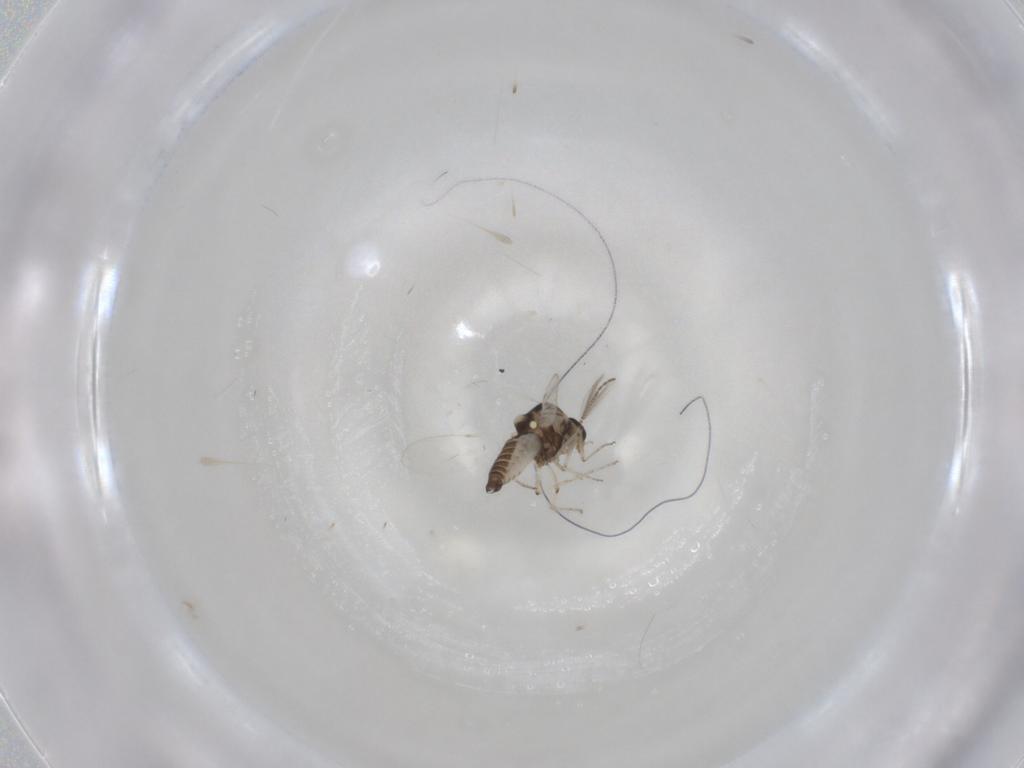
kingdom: Animalia
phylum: Arthropoda
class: Insecta
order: Diptera
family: Ceratopogonidae
